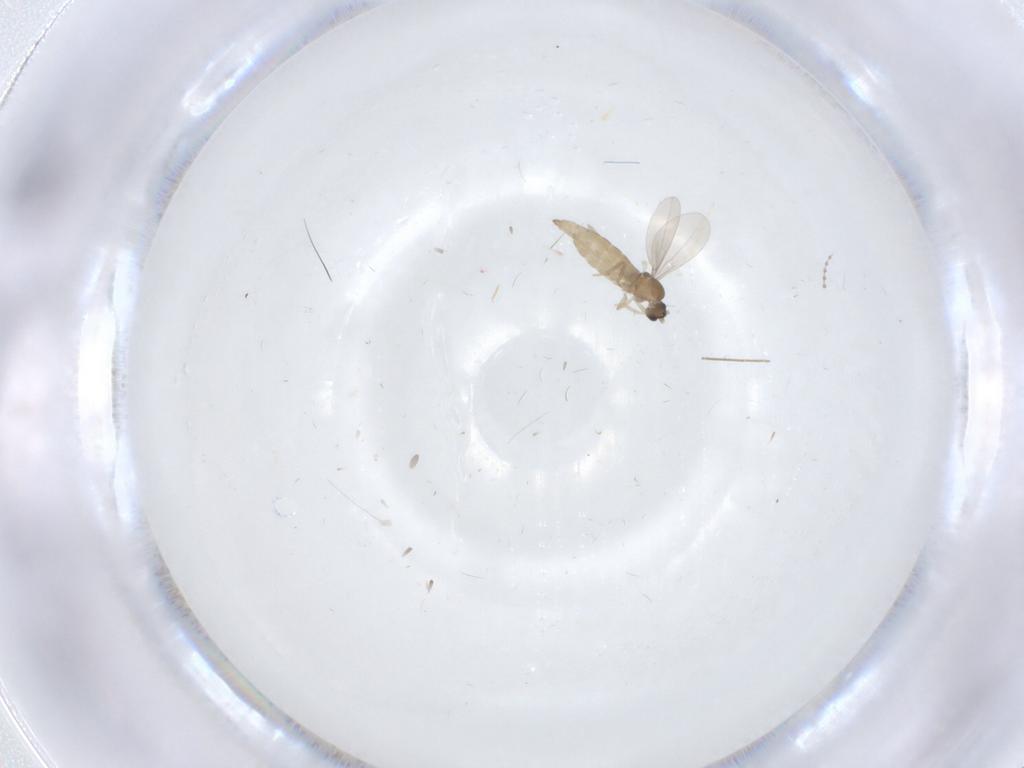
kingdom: Animalia
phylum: Arthropoda
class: Insecta
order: Diptera
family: Cecidomyiidae
